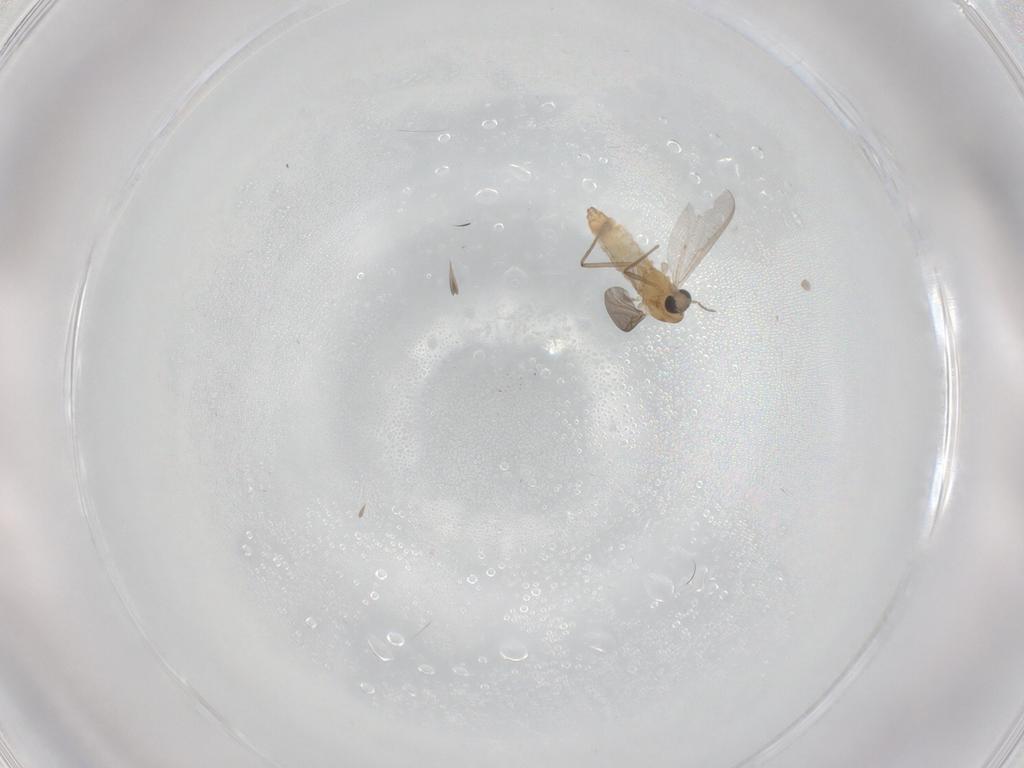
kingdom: Animalia
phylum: Arthropoda
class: Insecta
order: Diptera
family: Chironomidae
